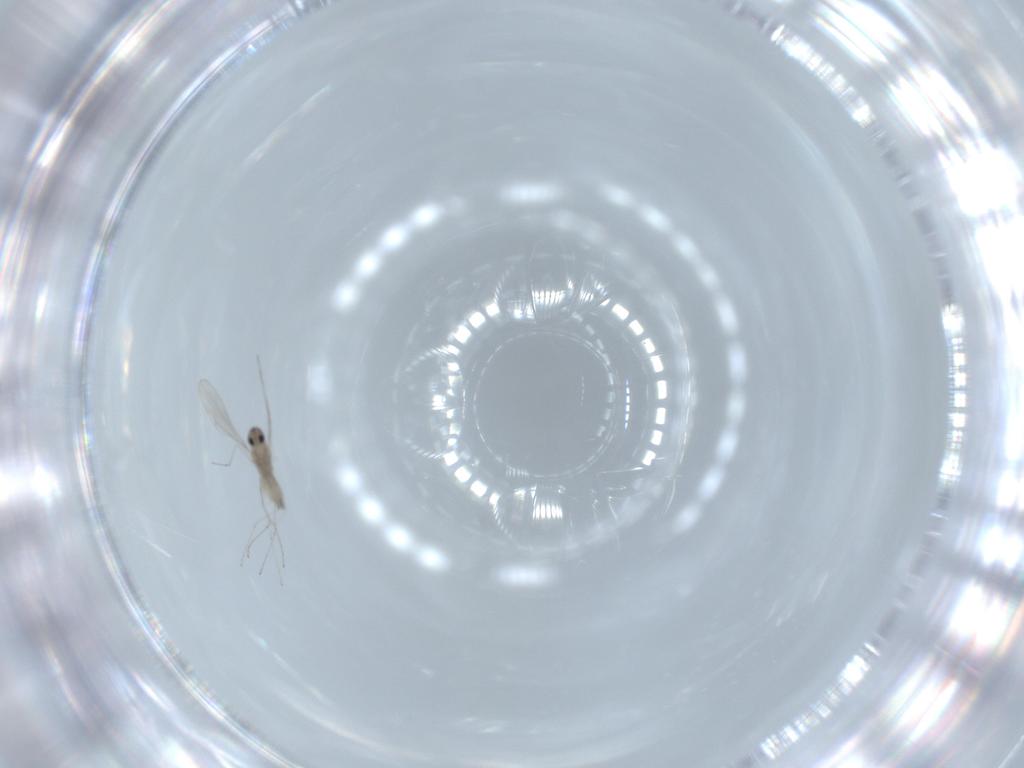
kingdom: Animalia
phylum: Arthropoda
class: Insecta
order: Diptera
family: Cecidomyiidae
